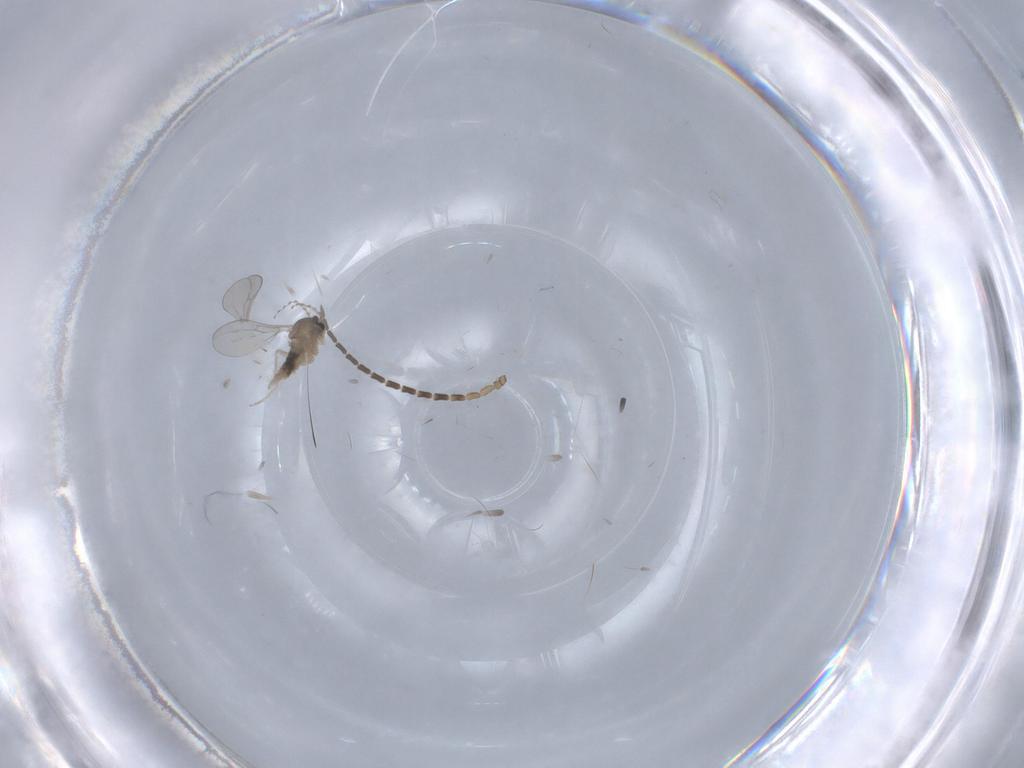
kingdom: Animalia
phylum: Arthropoda
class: Insecta
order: Diptera
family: Cecidomyiidae
